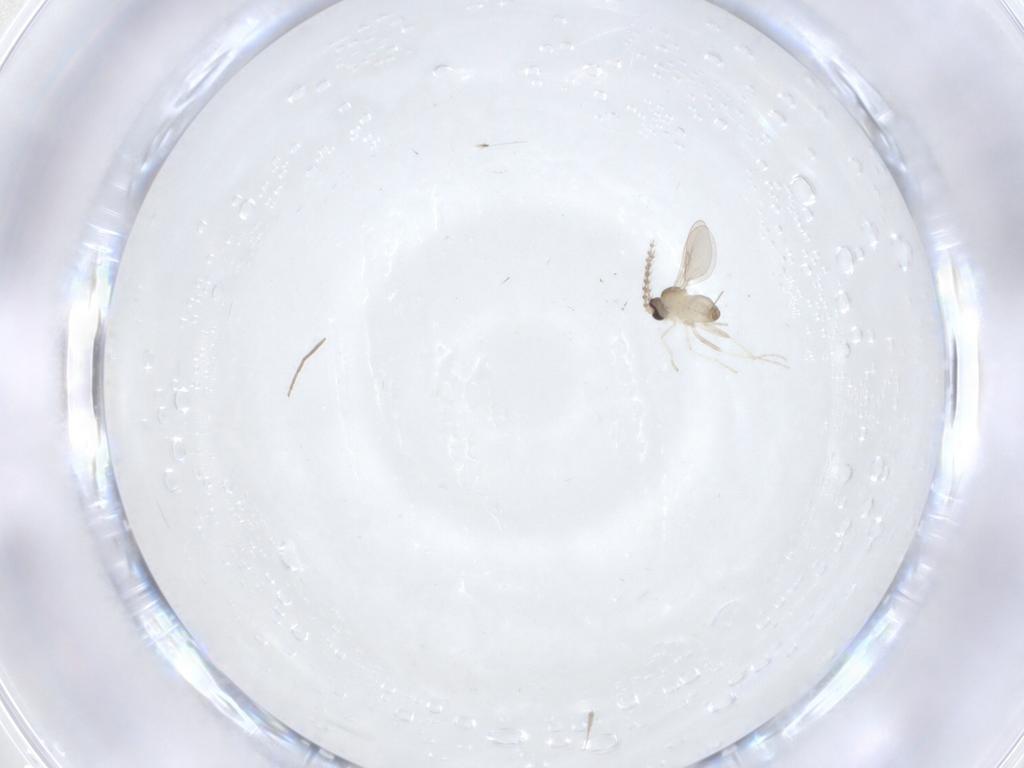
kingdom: Animalia
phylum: Arthropoda
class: Insecta
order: Diptera
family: Cecidomyiidae
